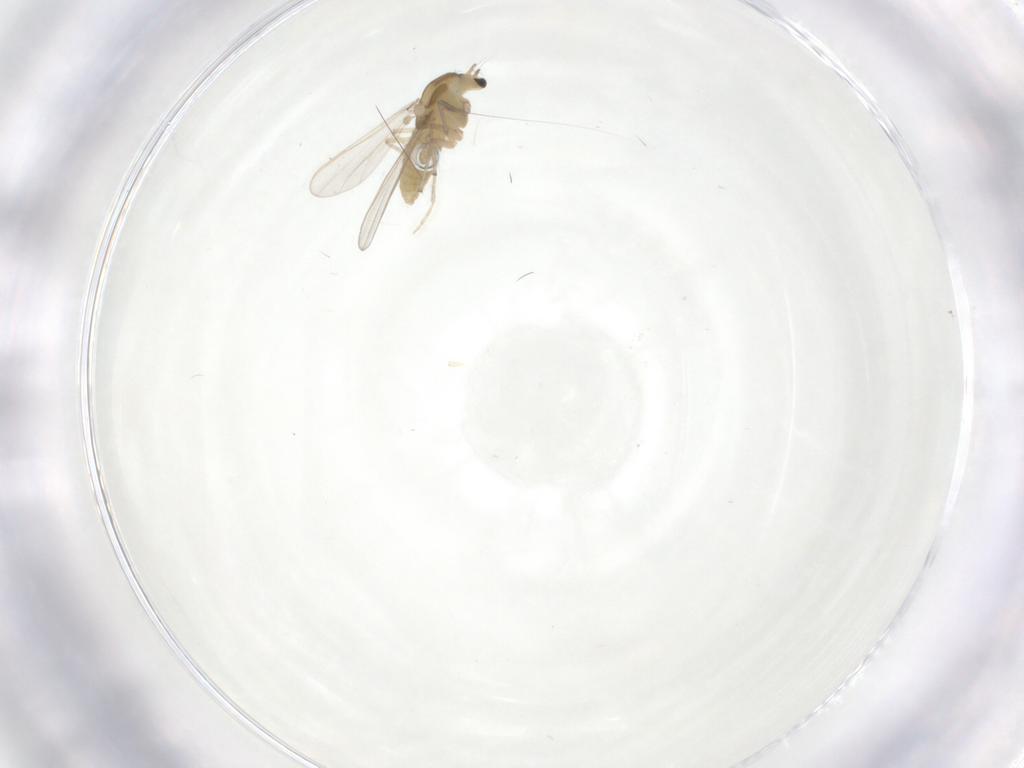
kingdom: Animalia
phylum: Arthropoda
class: Insecta
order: Diptera
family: Chironomidae
